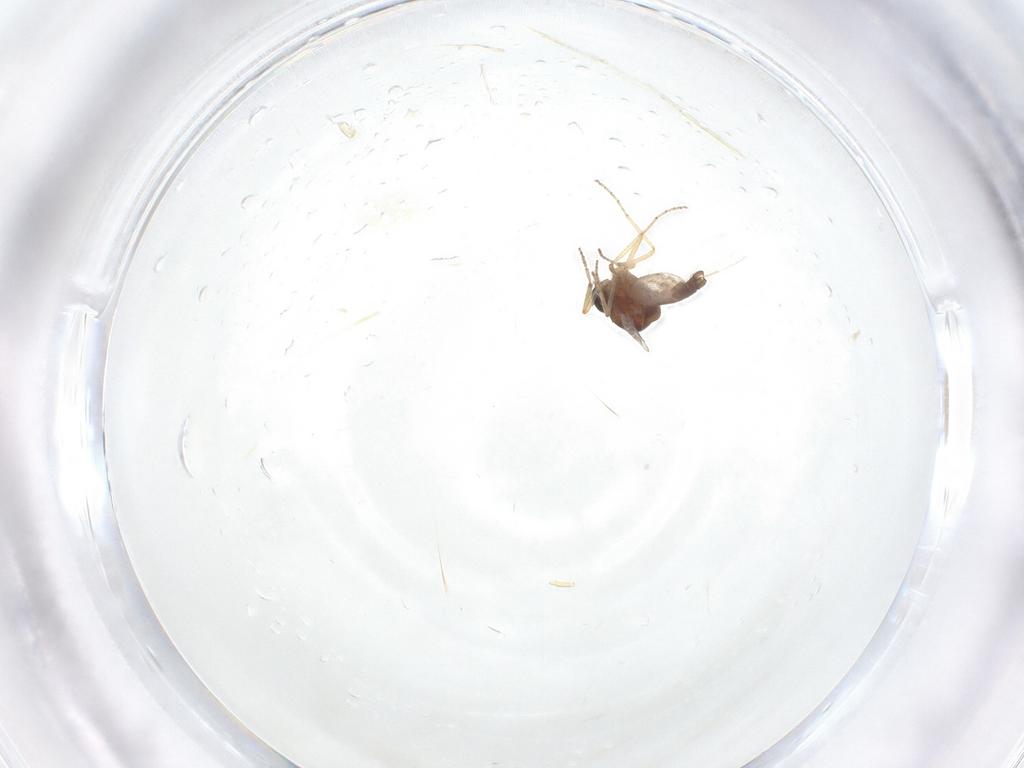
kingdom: Animalia
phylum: Arthropoda
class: Insecta
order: Diptera
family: Ceratopogonidae
